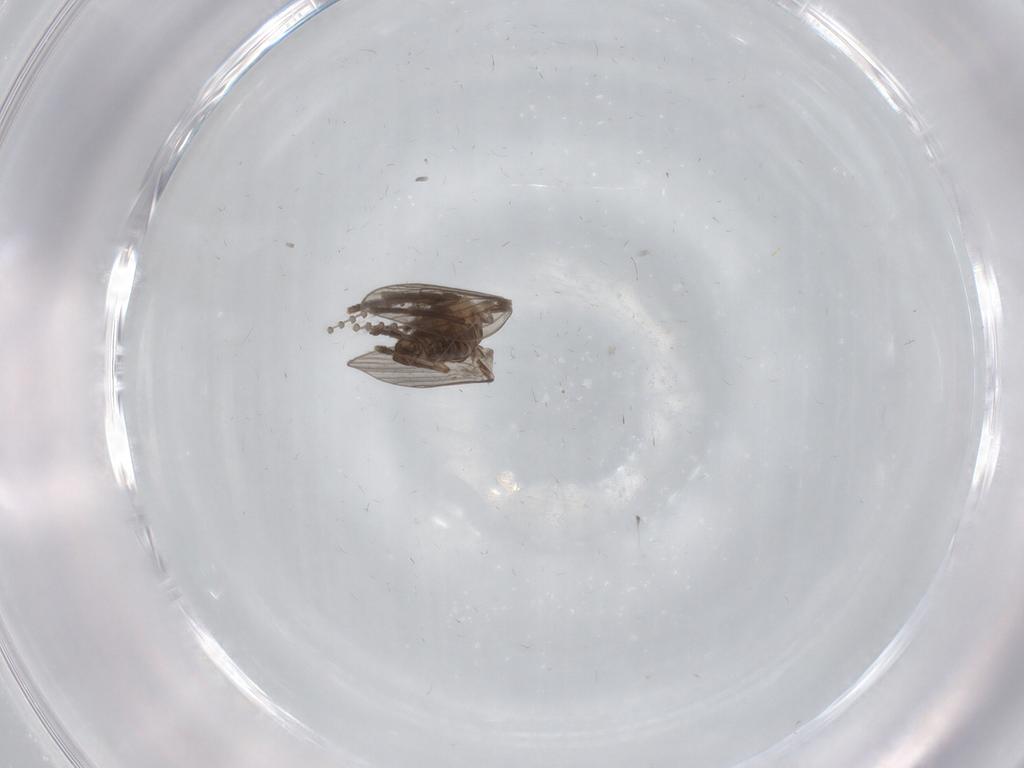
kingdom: Animalia
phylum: Arthropoda
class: Insecta
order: Diptera
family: Psychodidae
